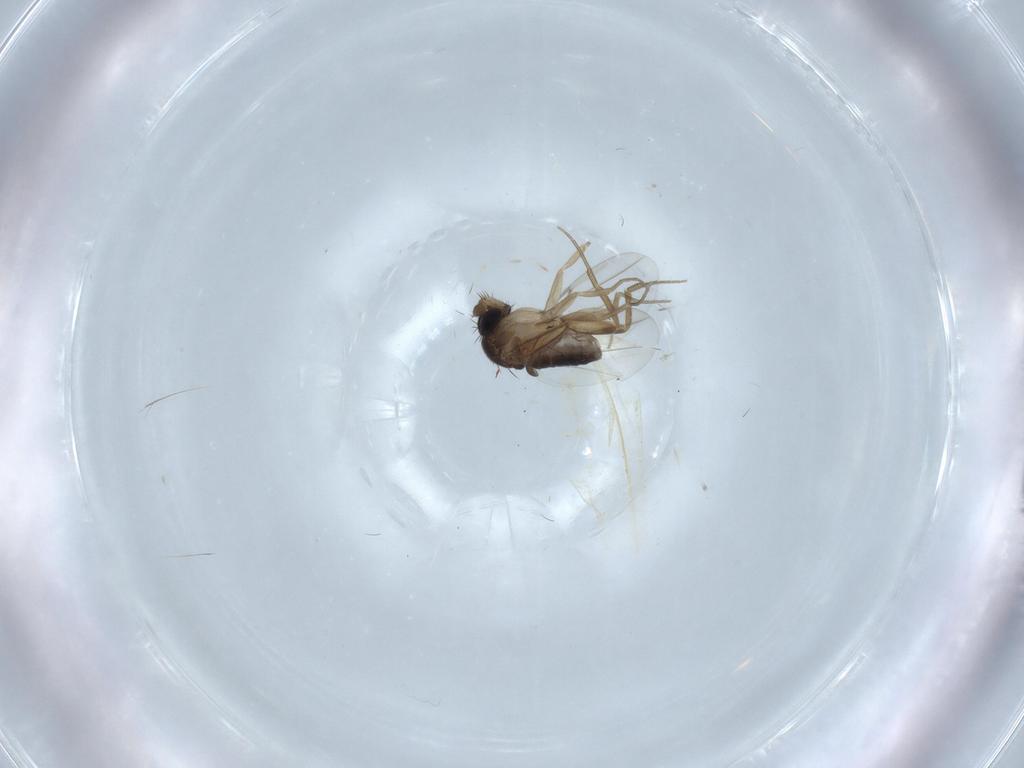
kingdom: Animalia
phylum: Arthropoda
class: Insecta
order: Diptera
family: Phoridae
